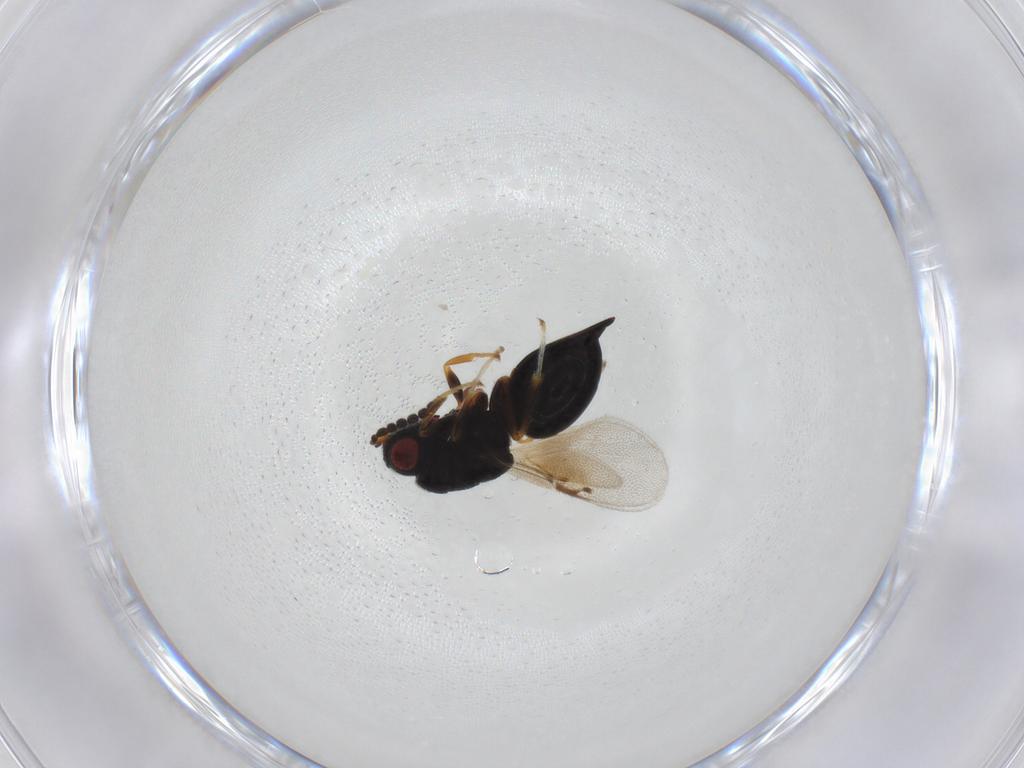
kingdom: Animalia
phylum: Arthropoda
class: Insecta
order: Hymenoptera
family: Eurytomidae
